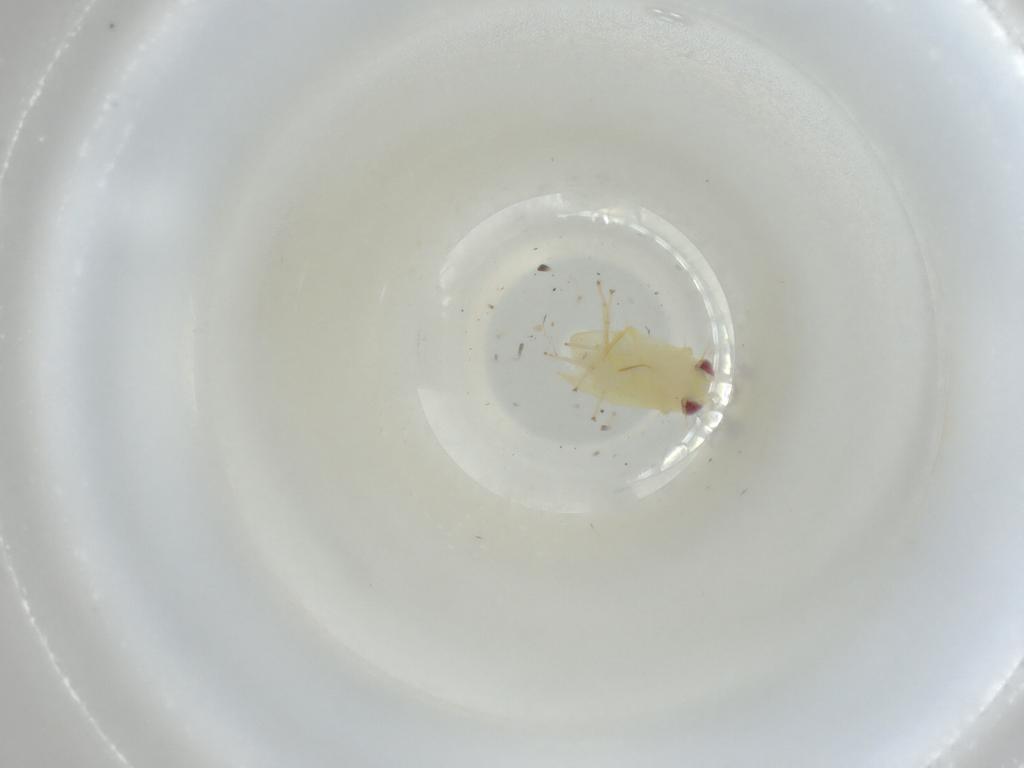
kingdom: Animalia
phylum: Arthropoda
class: Insecta
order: Hemiptera
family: Cicadellidae
